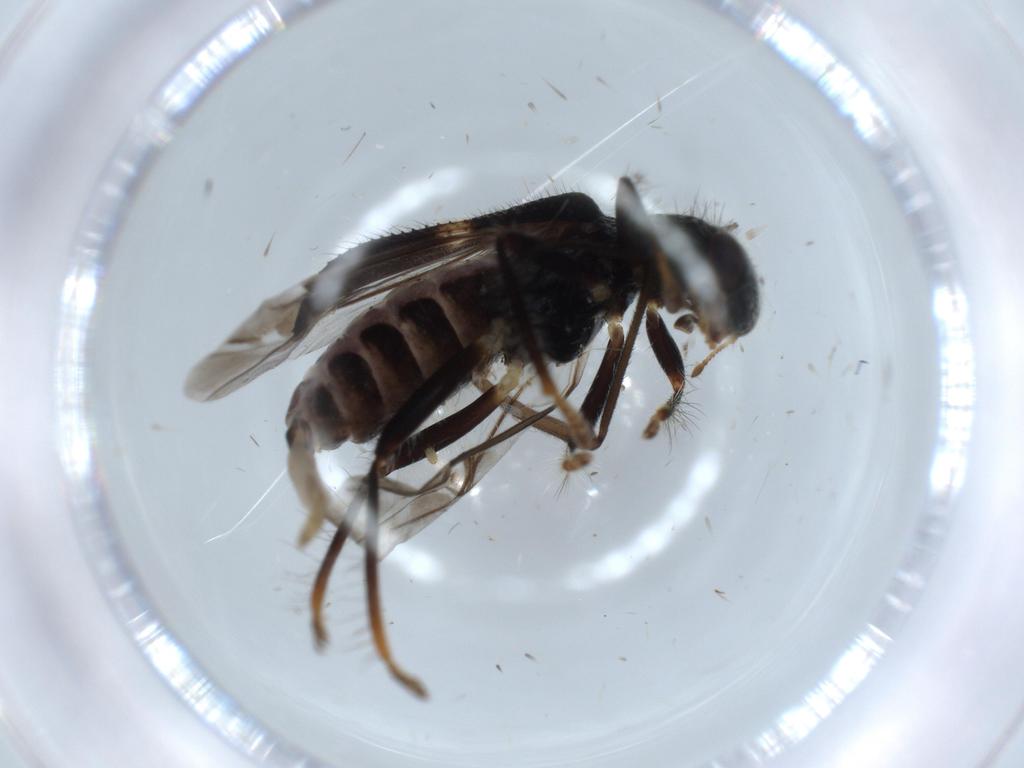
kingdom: Animalia
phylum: Arthropoda
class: Insecta
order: Coleoptera
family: Cleridae
